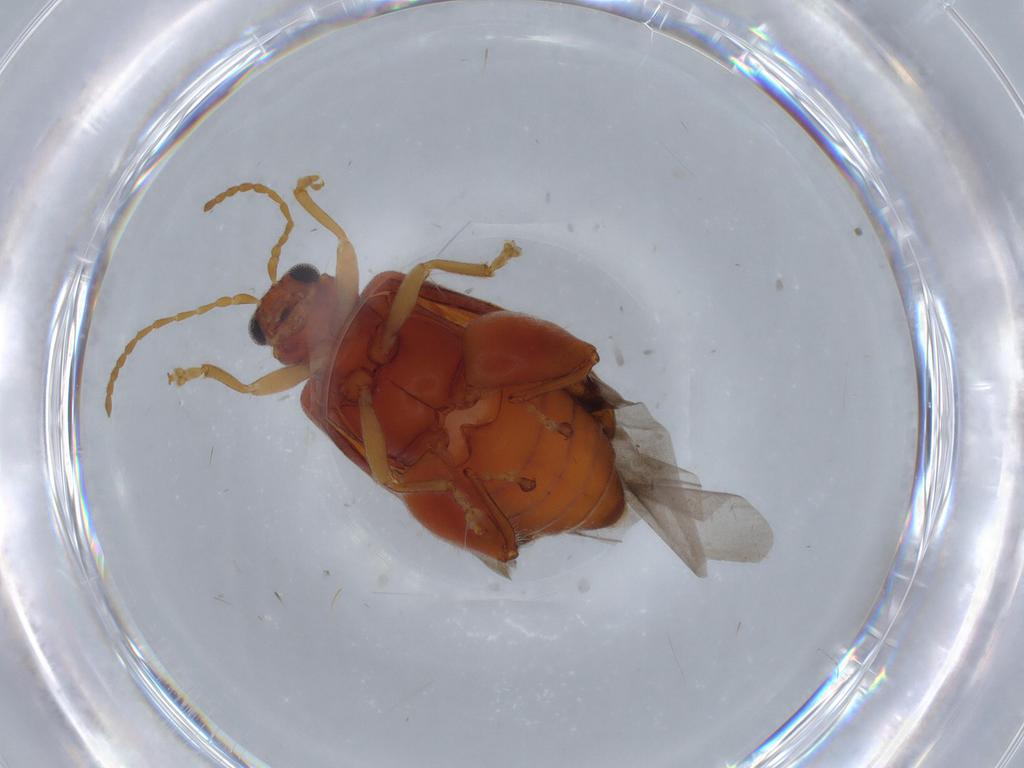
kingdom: Animalia
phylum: Arthropoda
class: Insecta
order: Coleoptera
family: Chrysomelidae
